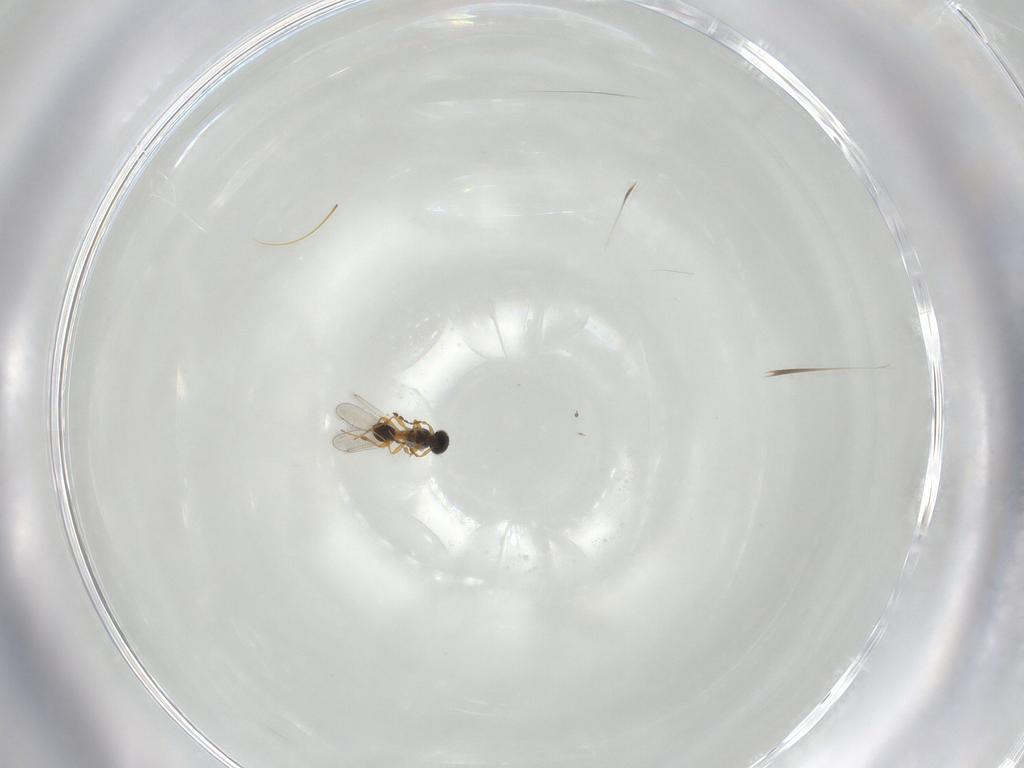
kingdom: Animalia
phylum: Arthropoda
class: Insecta
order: Hymenoptera
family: Platygastridae
